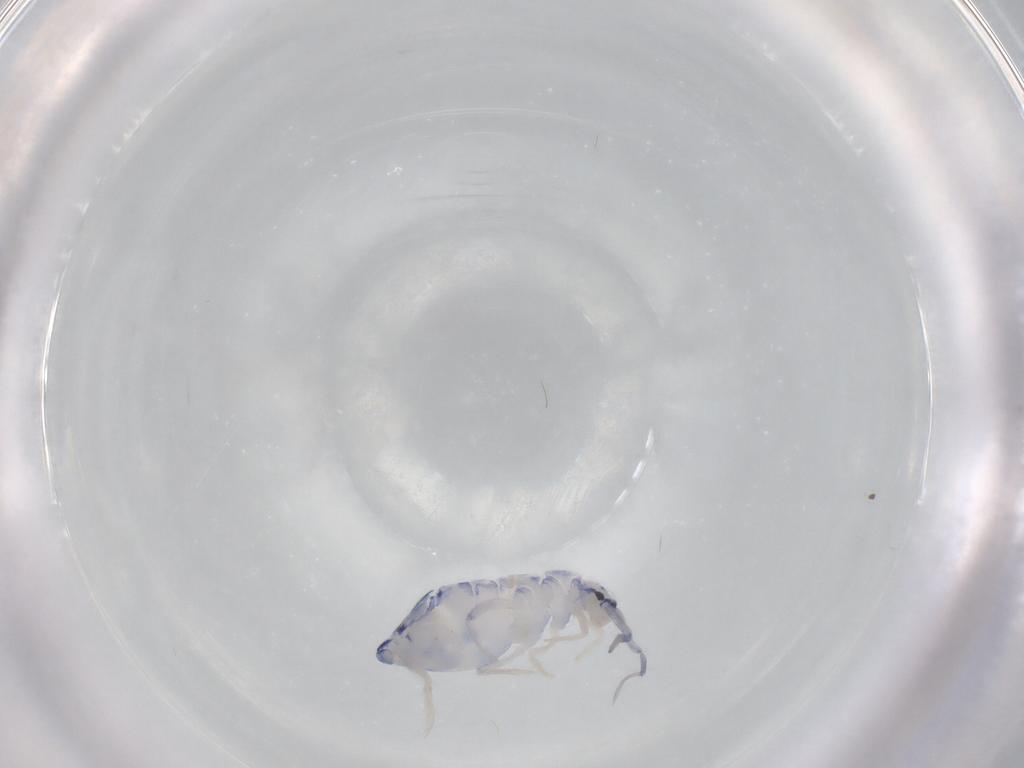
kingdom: Animalia
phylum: Arthropoda
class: Collembola
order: Entomobryomorpha
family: Entomobryidae
